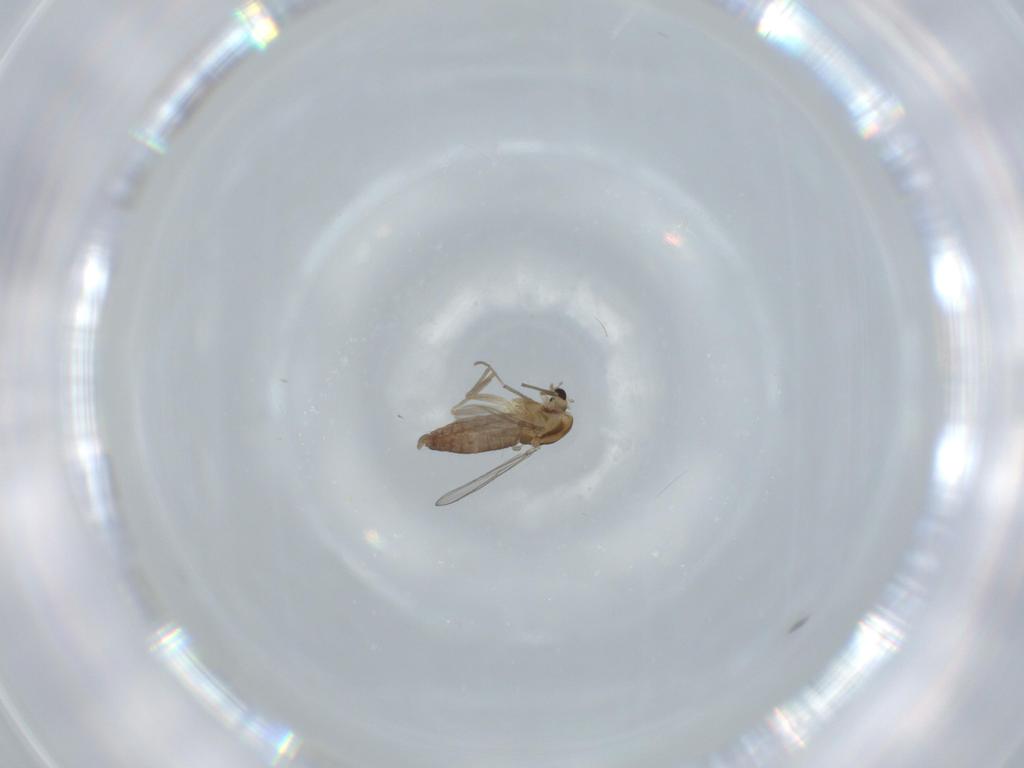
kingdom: Animalia
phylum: Arthropoda
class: Insecta
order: Diptera
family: Chironomidae
